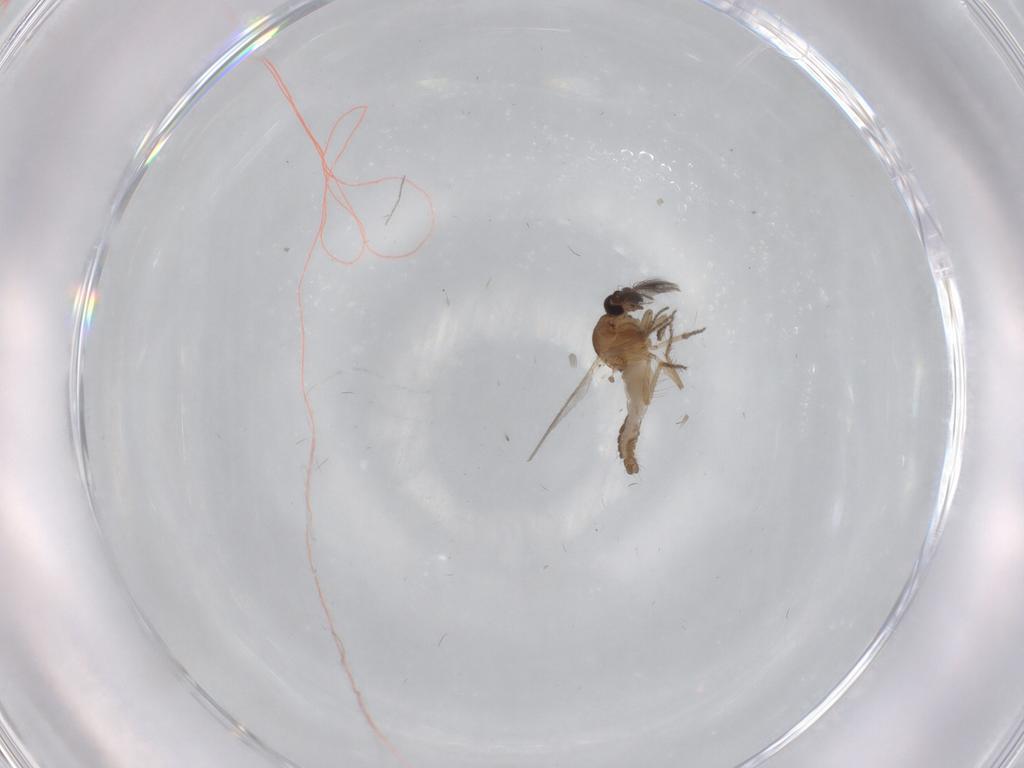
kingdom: Animalia
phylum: Arthropoda
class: Insecta
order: Diptera
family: Ceratopogonidae
